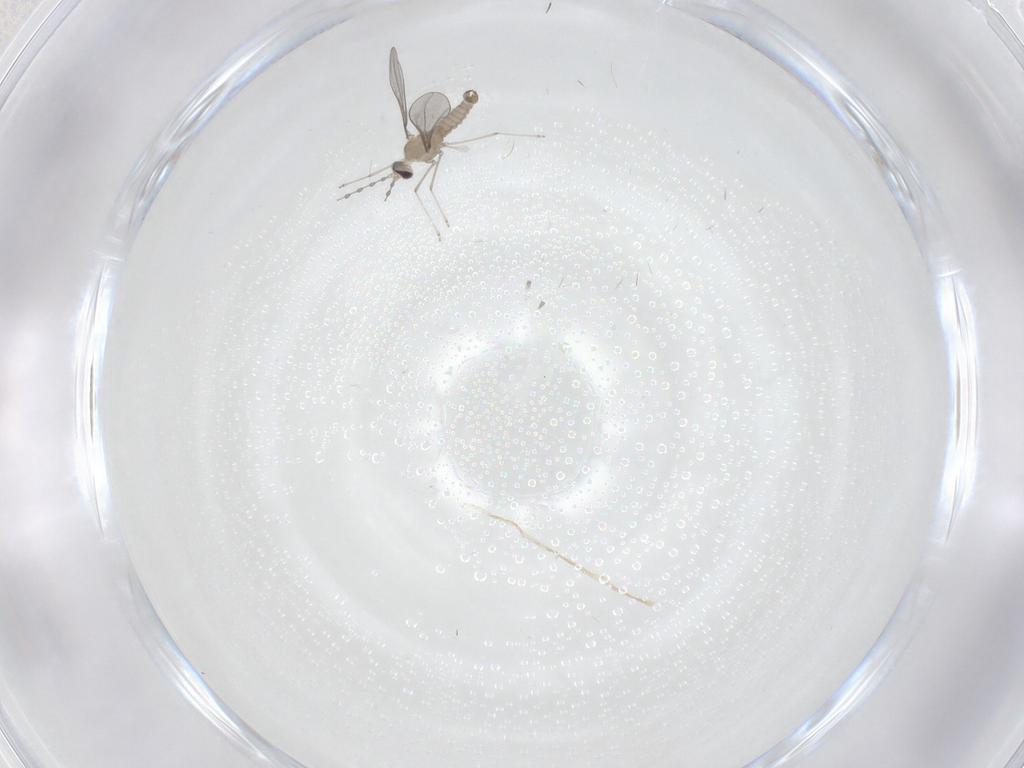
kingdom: Animalia
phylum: Arthropoda
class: Insecta
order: Diptera
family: Cecidomyiidae
